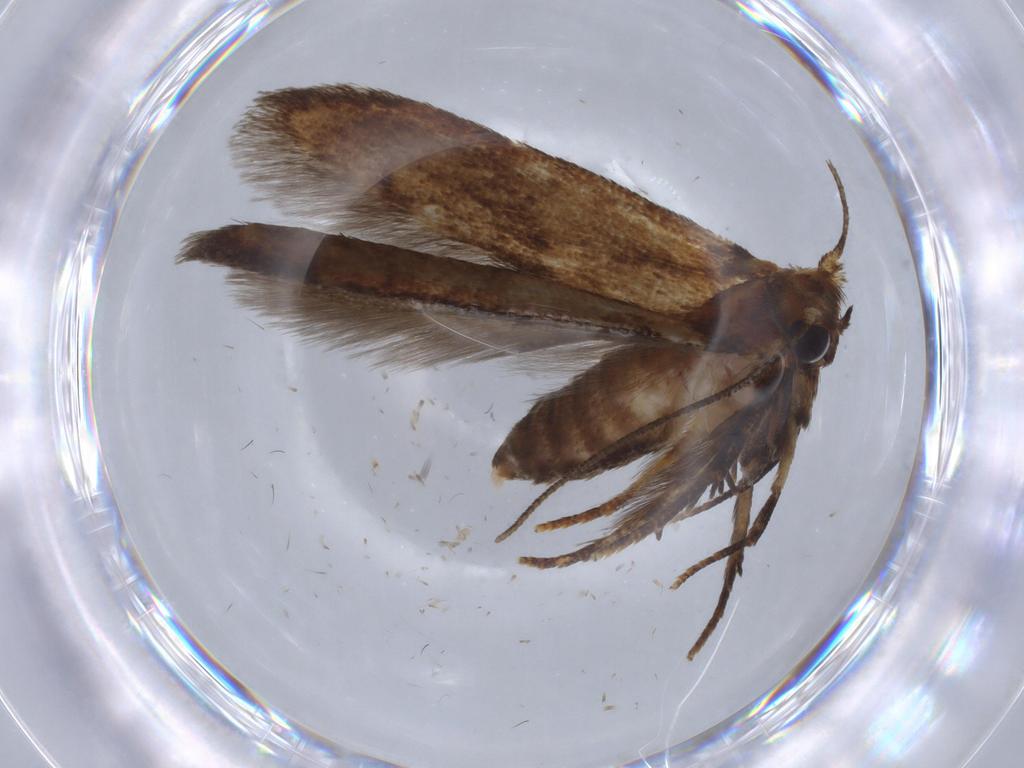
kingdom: Animalia
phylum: Arthropoda
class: Insecta
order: Lepidoptera
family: Blastobasidae
